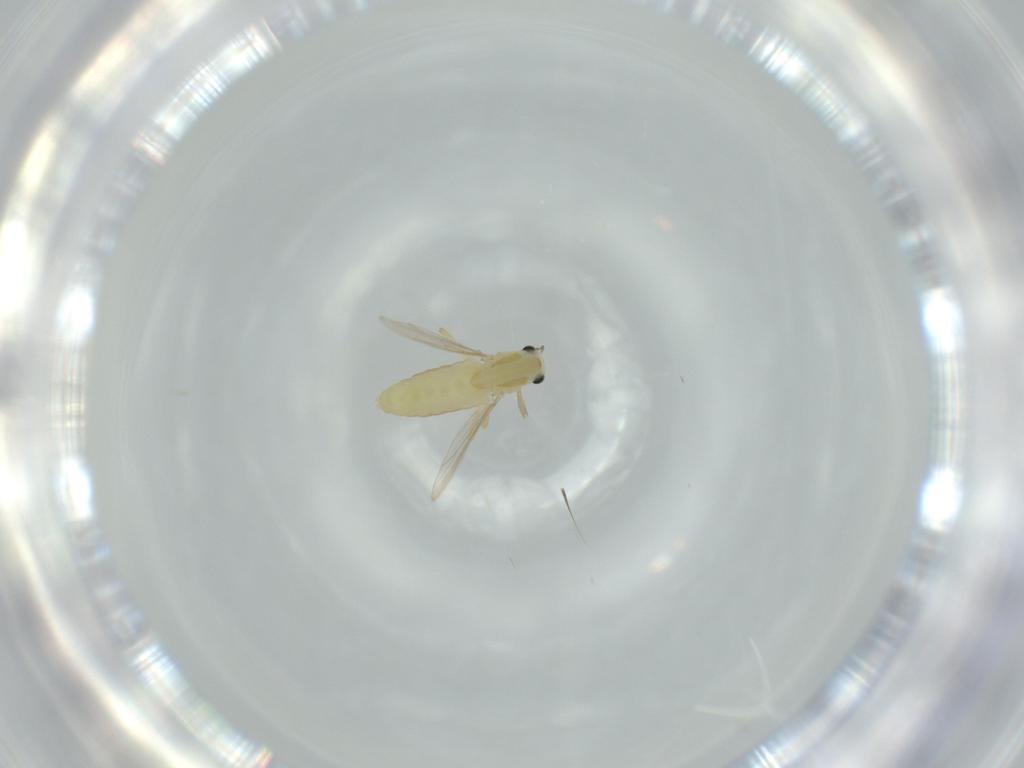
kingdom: Animalia
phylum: Arthropoda
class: Insecta
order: Diptera
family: Chironomidae
